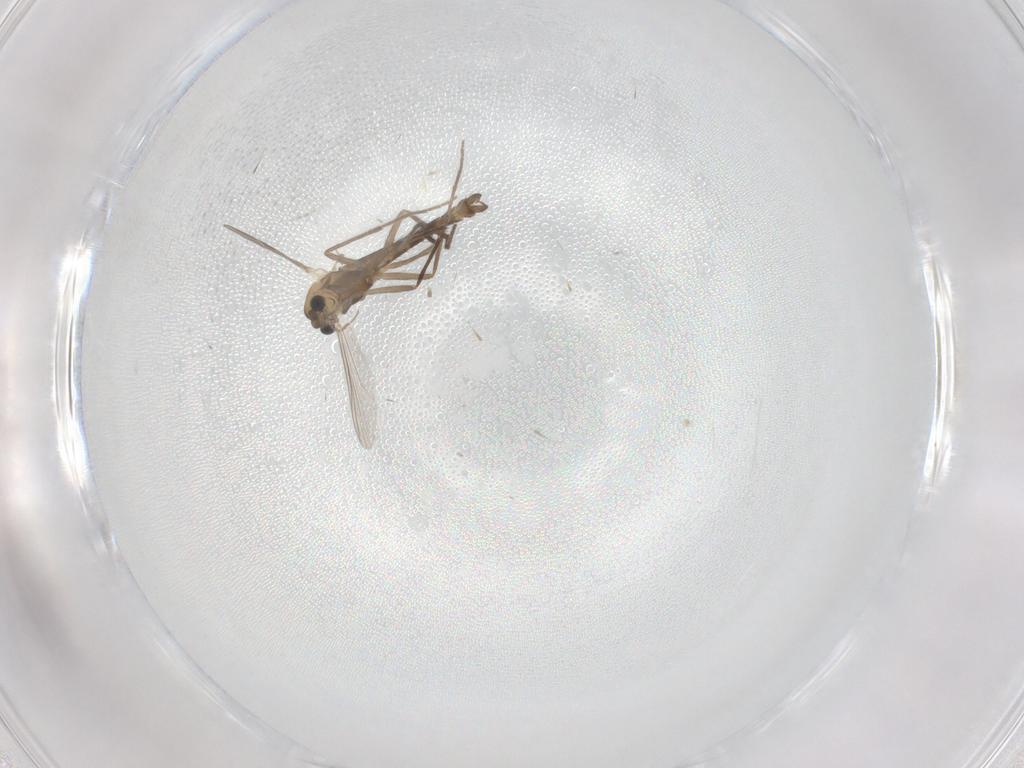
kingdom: Animalia
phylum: Arthropoda
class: Insecta
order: Diptera
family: Chironomidae
